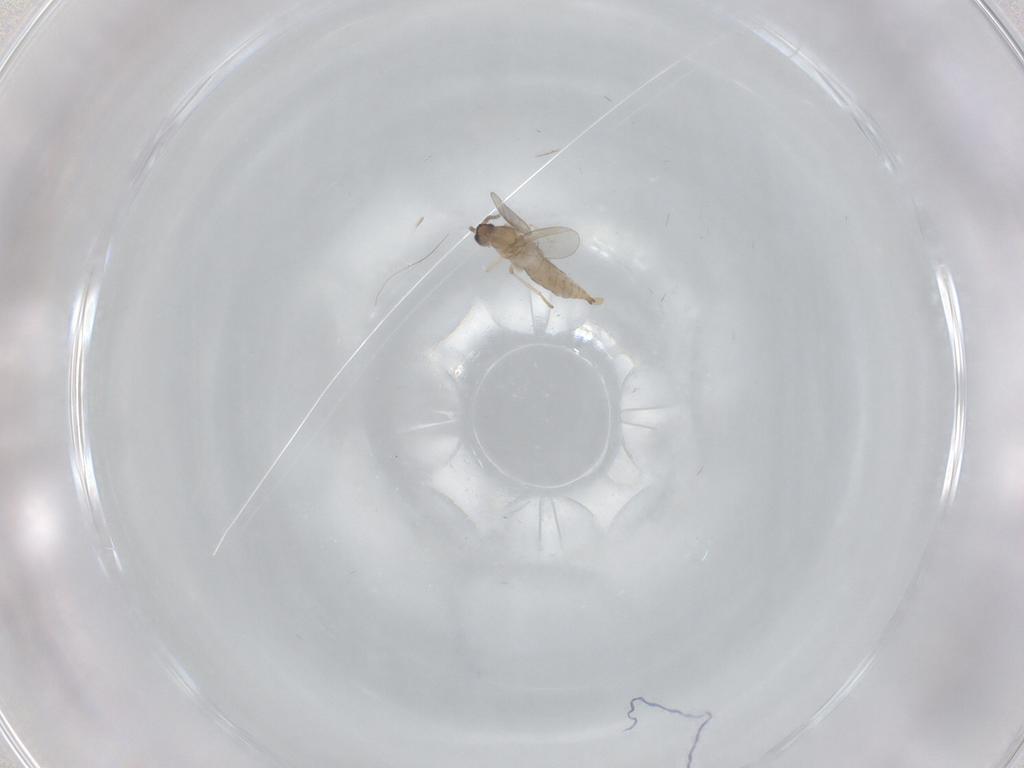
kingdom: Animalia
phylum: Arthropoda
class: Insecta
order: Diptera
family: Cecidomyiidae
